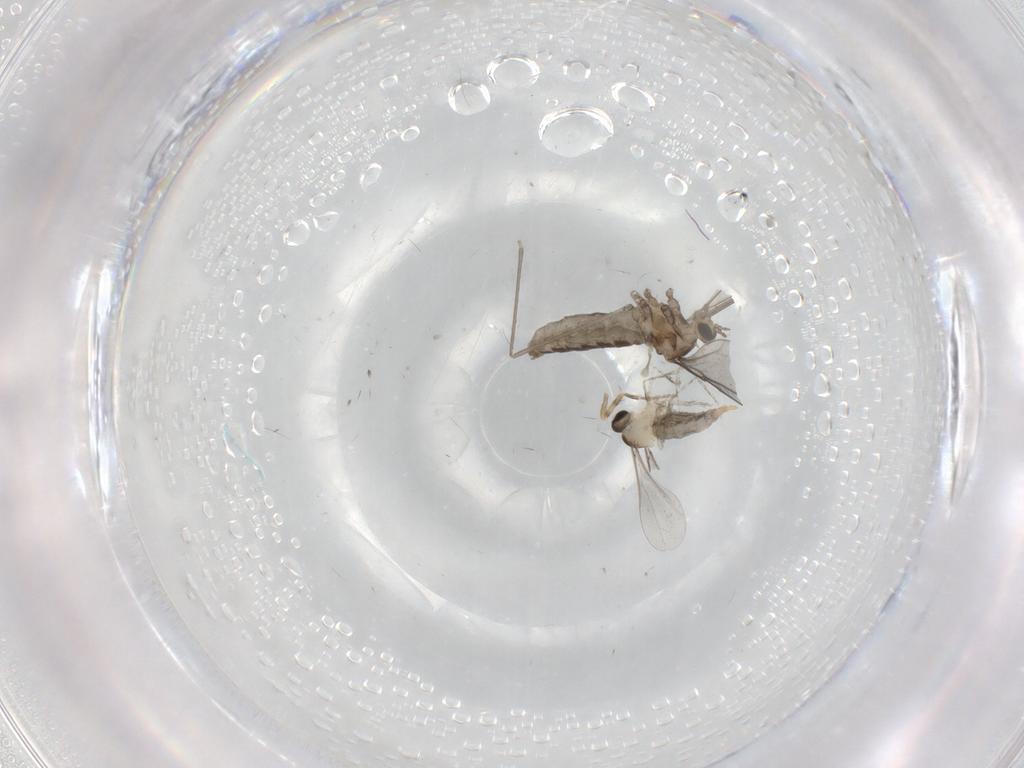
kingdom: Animalia
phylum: Arthropoda
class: Insecta
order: Diptera
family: Cecidomyiidae
